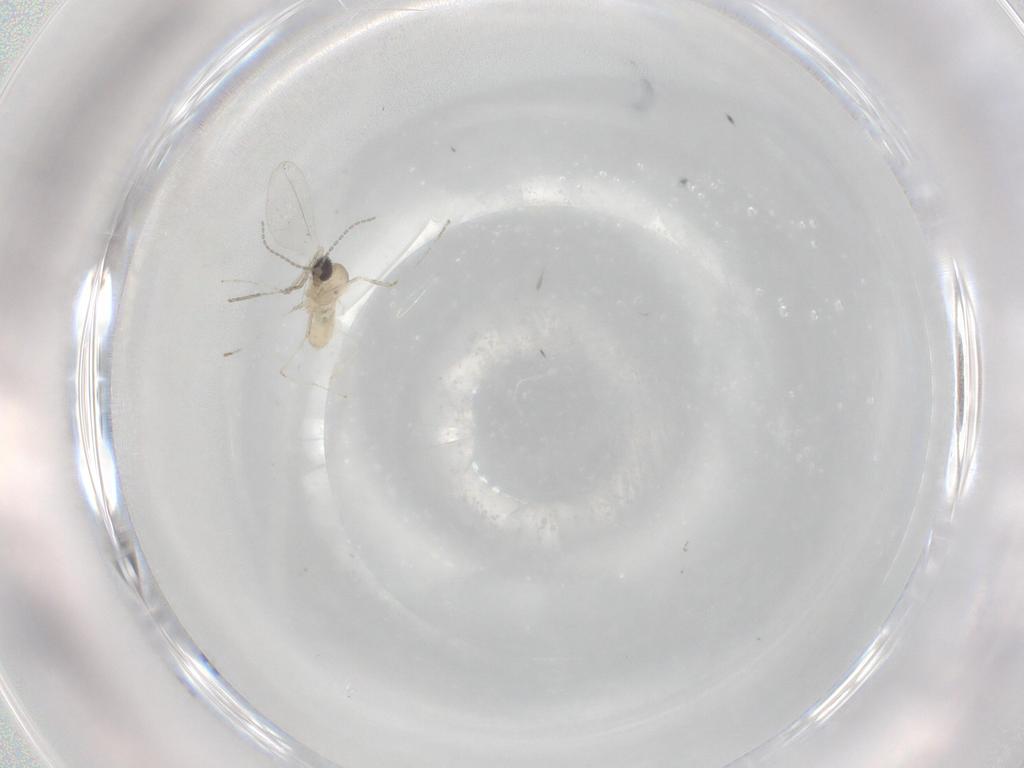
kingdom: Animalia
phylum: Arthropoda
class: Insecta
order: Diptera
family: Cecidomyiidae
